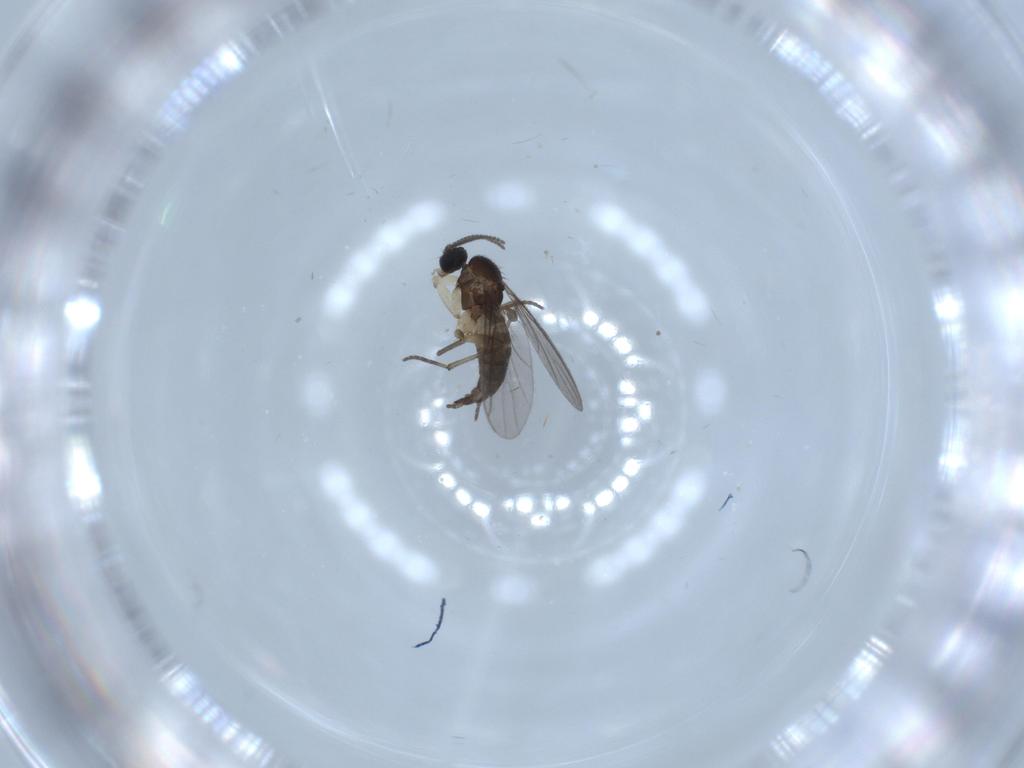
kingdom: Animalia
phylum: Arthropoda
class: Insecta
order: Diptera
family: Sciaridae
